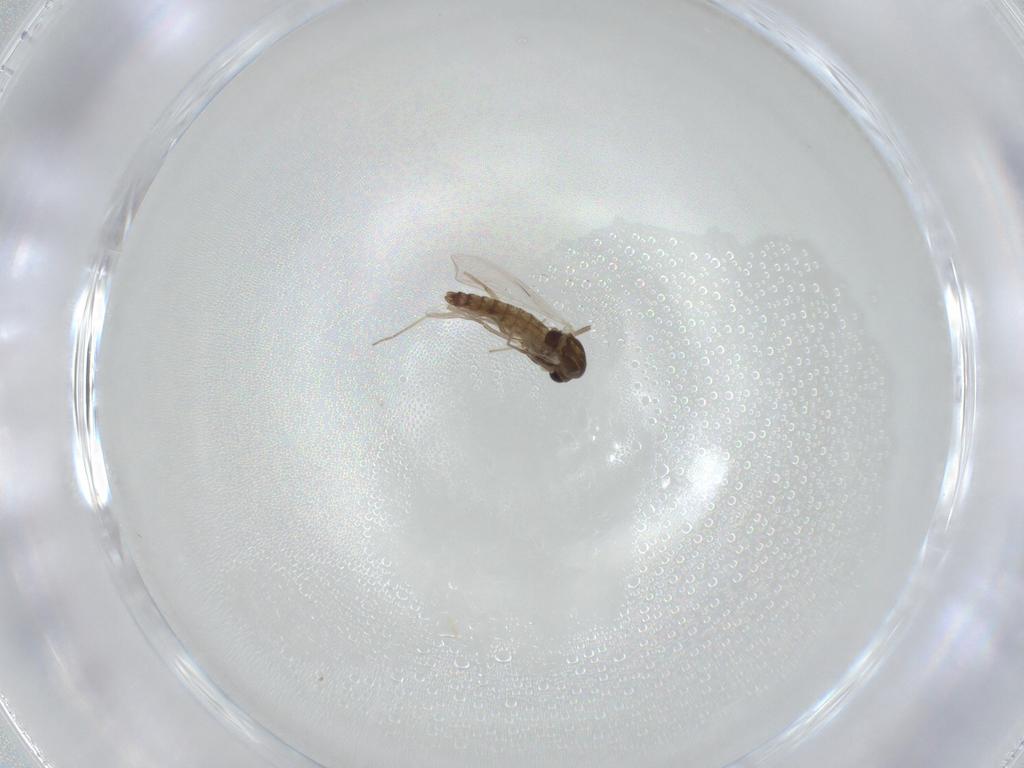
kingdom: Animalia
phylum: Arthropoda
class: Insecta
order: Diptera
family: Chironomidae
